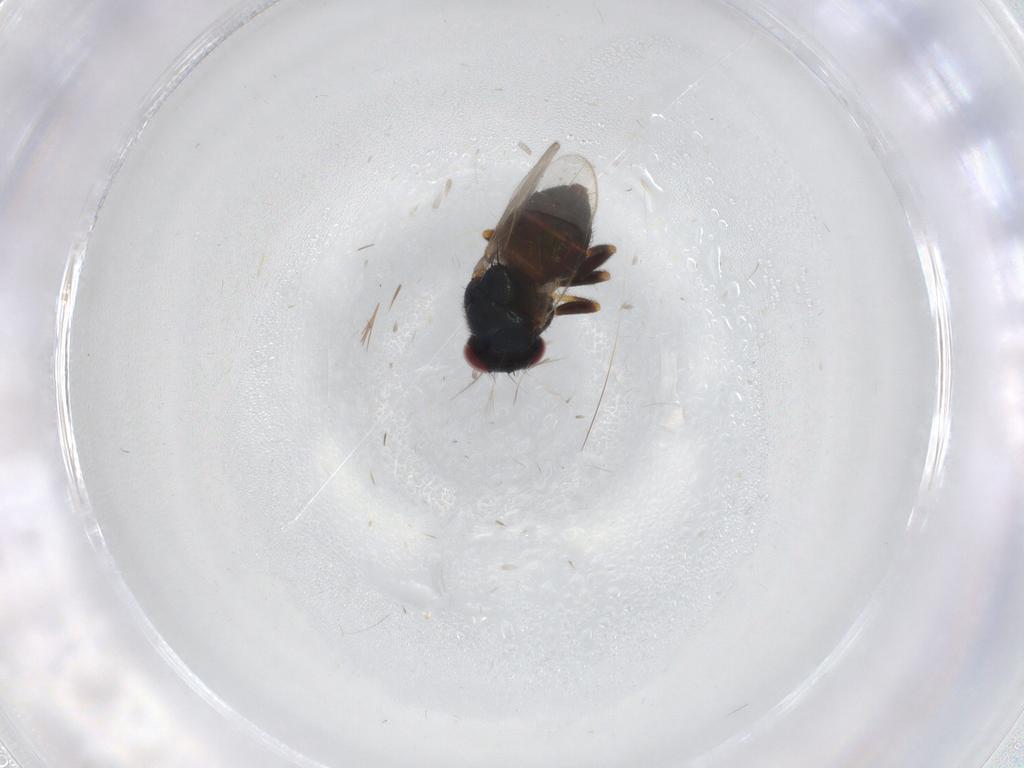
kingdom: Animalia
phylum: Arthropoda
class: Insecta
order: Diptera
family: Chloropidae
